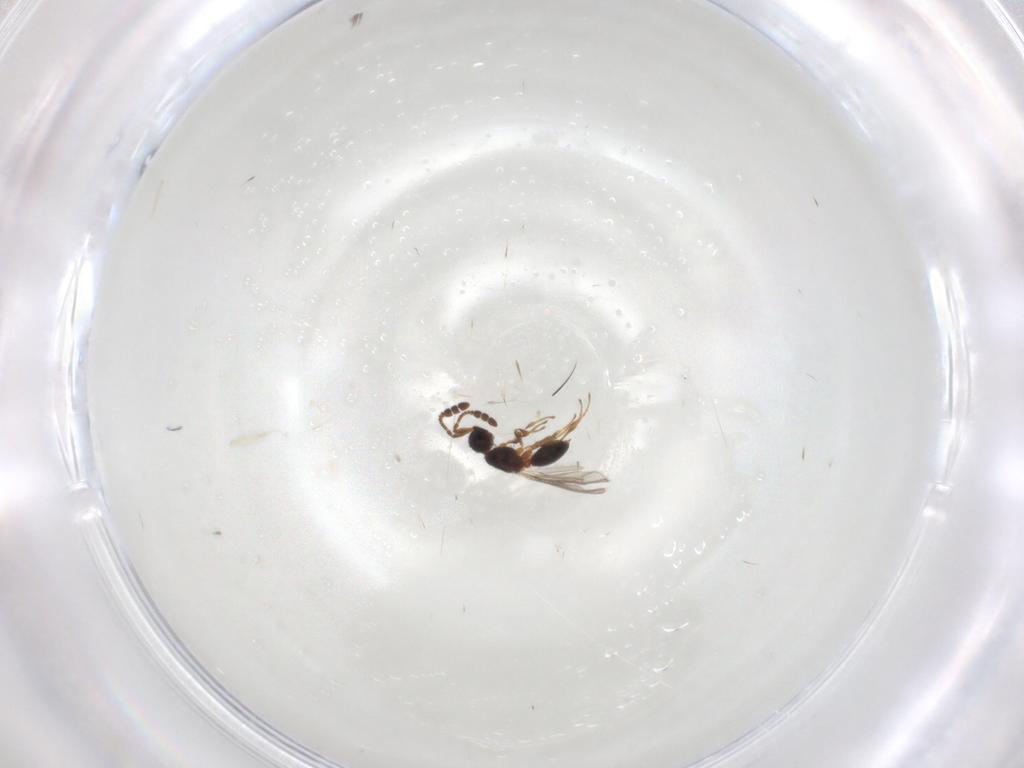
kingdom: Animalia
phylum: Arthropoda
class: Insecta
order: Hymenoptera
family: Diapriidae
